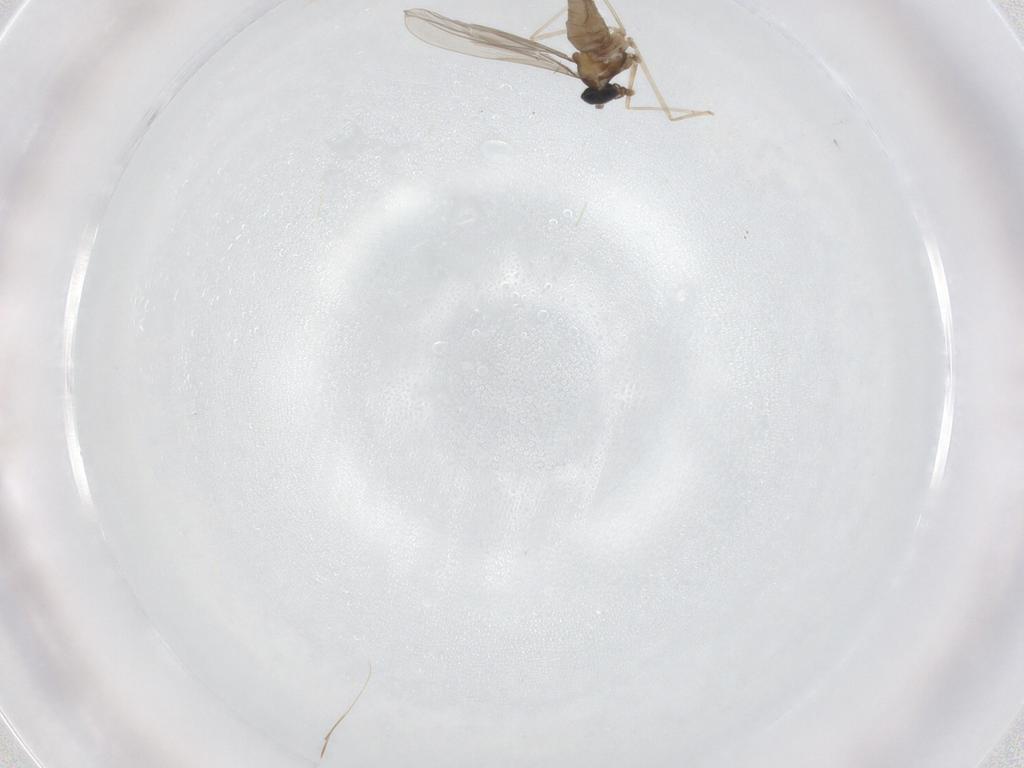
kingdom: Animalia
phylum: Arthropoda
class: Insecta
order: Diptera
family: Cecidomyiidae
